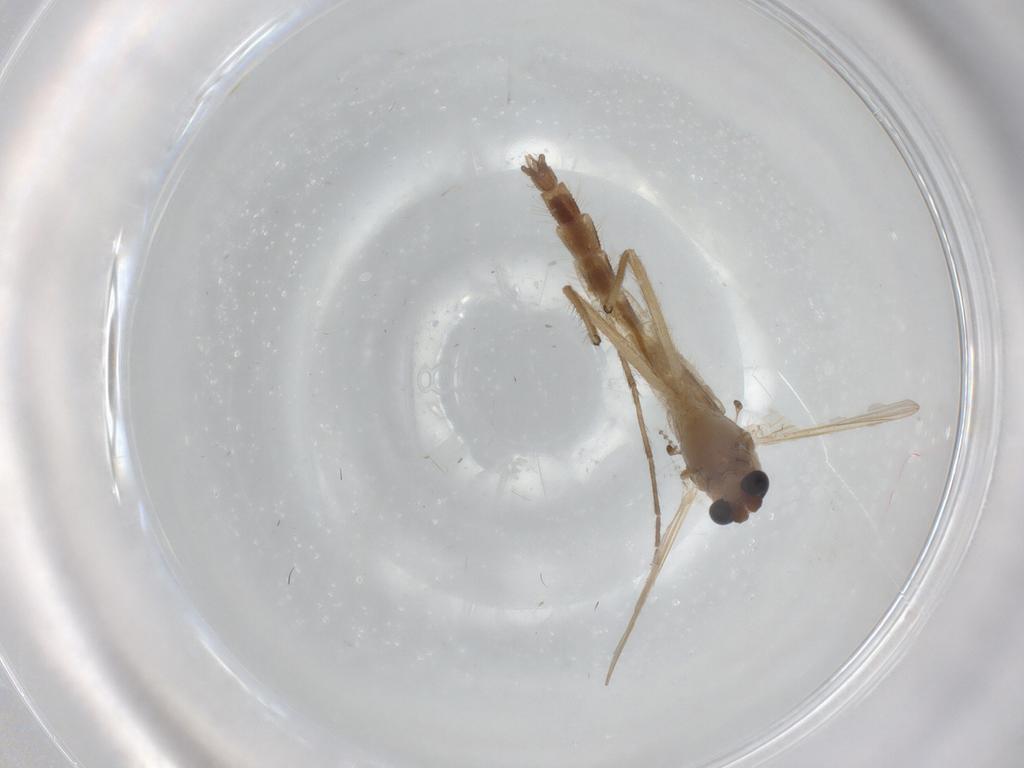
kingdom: Animalia
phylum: Arthropoda
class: Insecta
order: Diptera
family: Chironomidae
